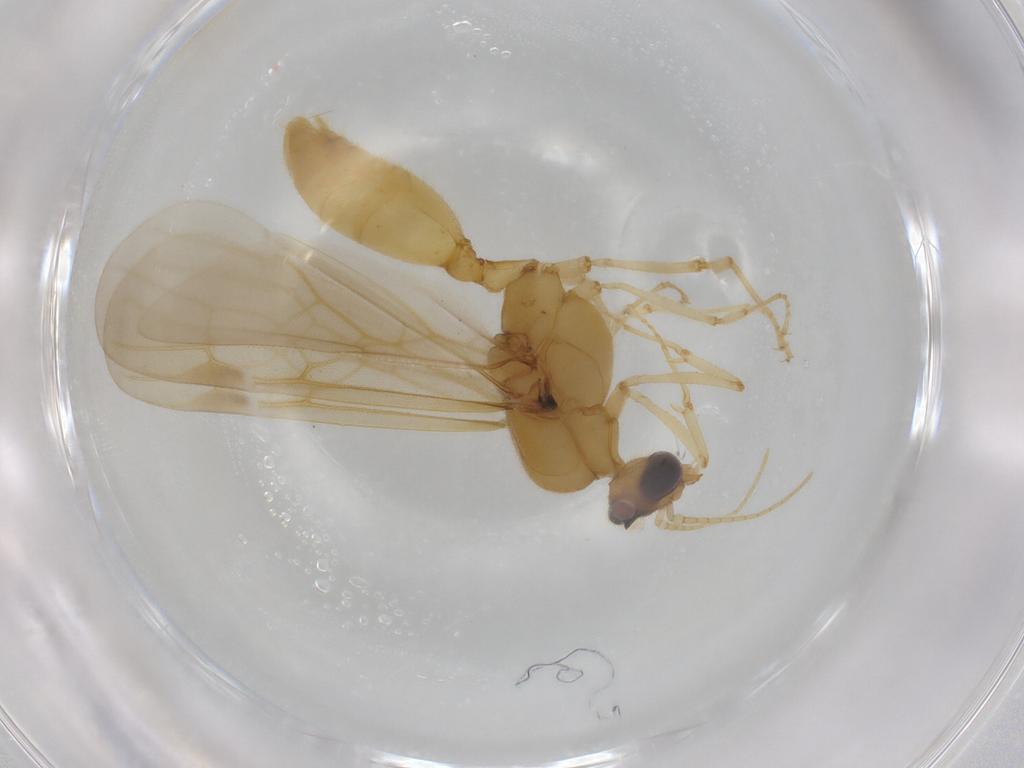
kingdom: Animalia
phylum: Arthropoda
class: Insecta
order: Hymenoptera
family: Formicidae
